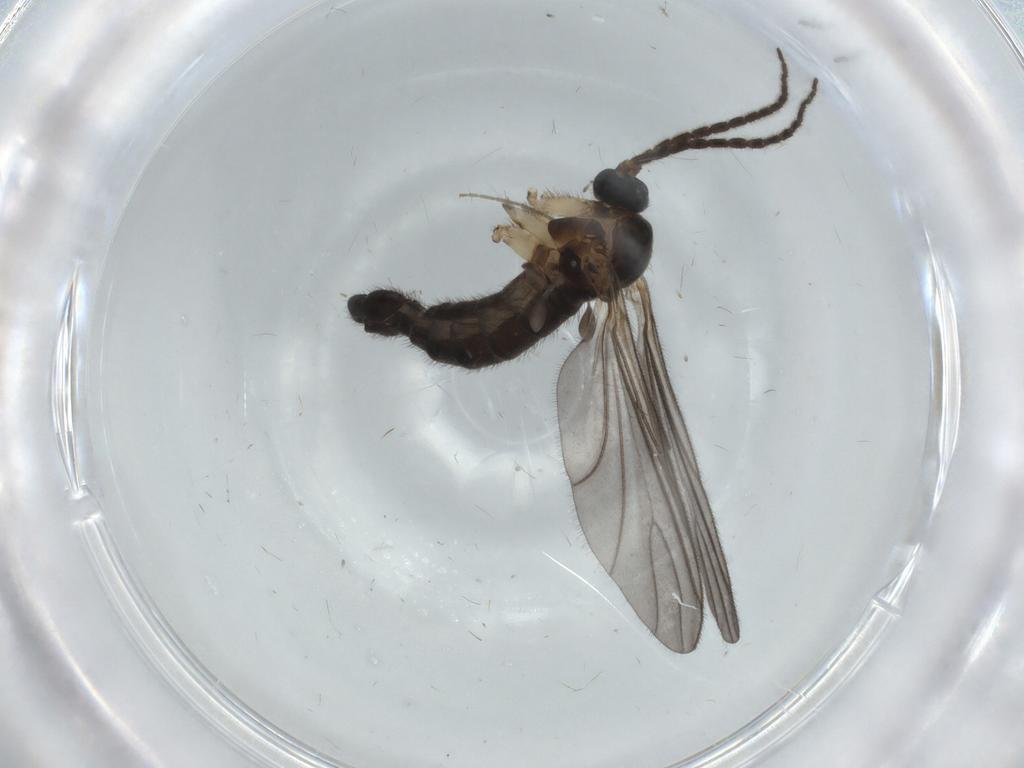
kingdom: Animalia
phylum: Arthropoda
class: Insecta
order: Diptera
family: Sciaridae
